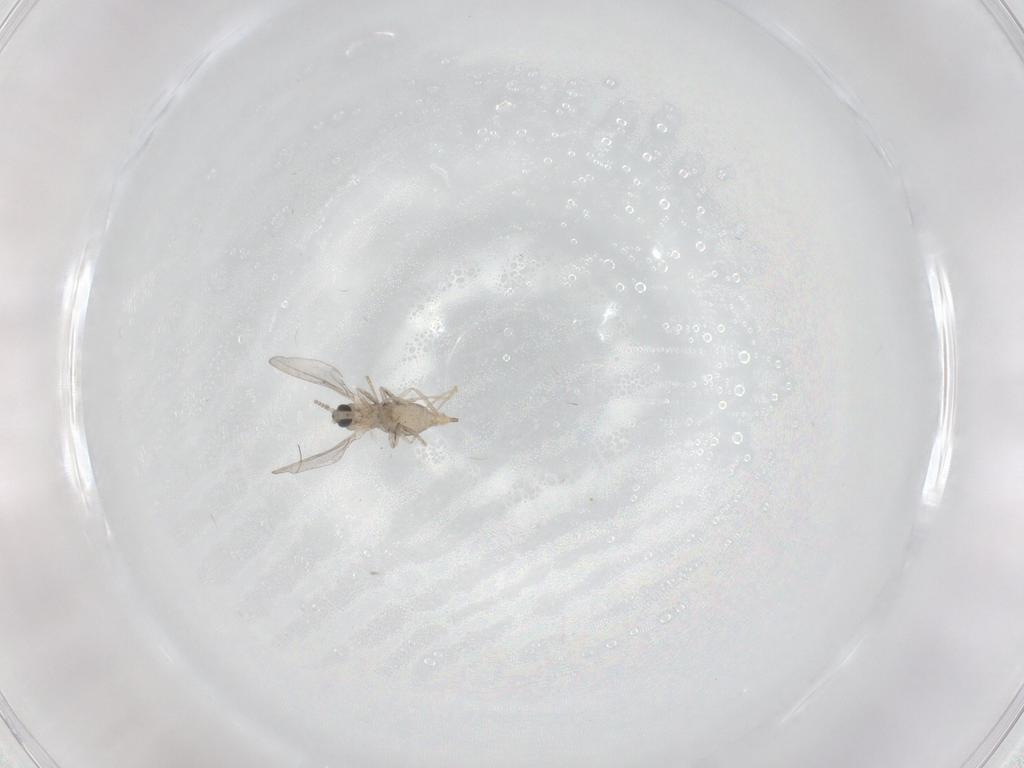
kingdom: Animalia
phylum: Arthropoda
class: Insecta
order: Diptera
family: Cecidomyiidae
